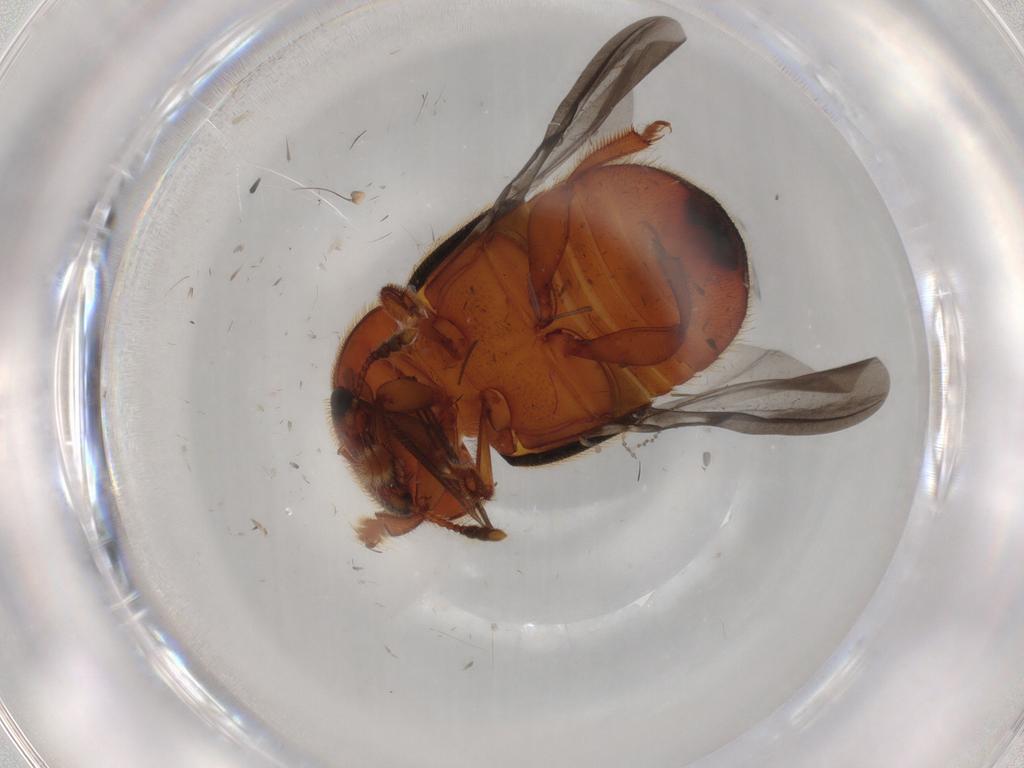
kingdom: Animalia
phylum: Arthropoda
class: Insecta
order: Coleoptera
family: Nitidulidae
